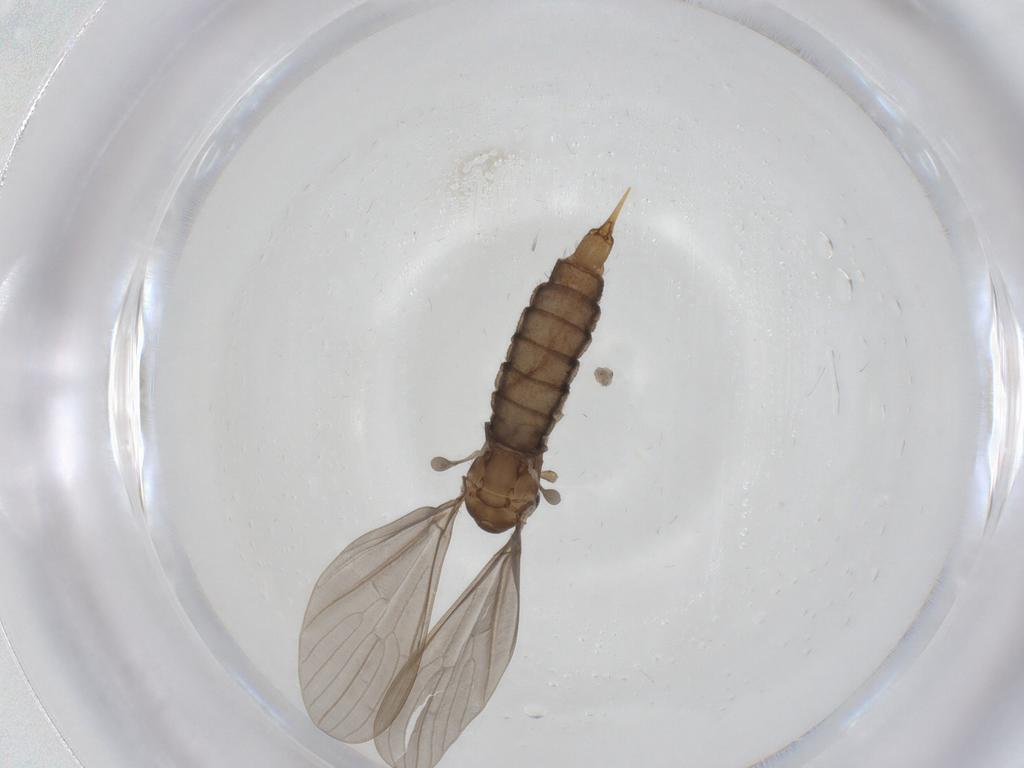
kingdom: Animalia
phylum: Arthropoda
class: Insecta
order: Diptera
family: Limoniidae
